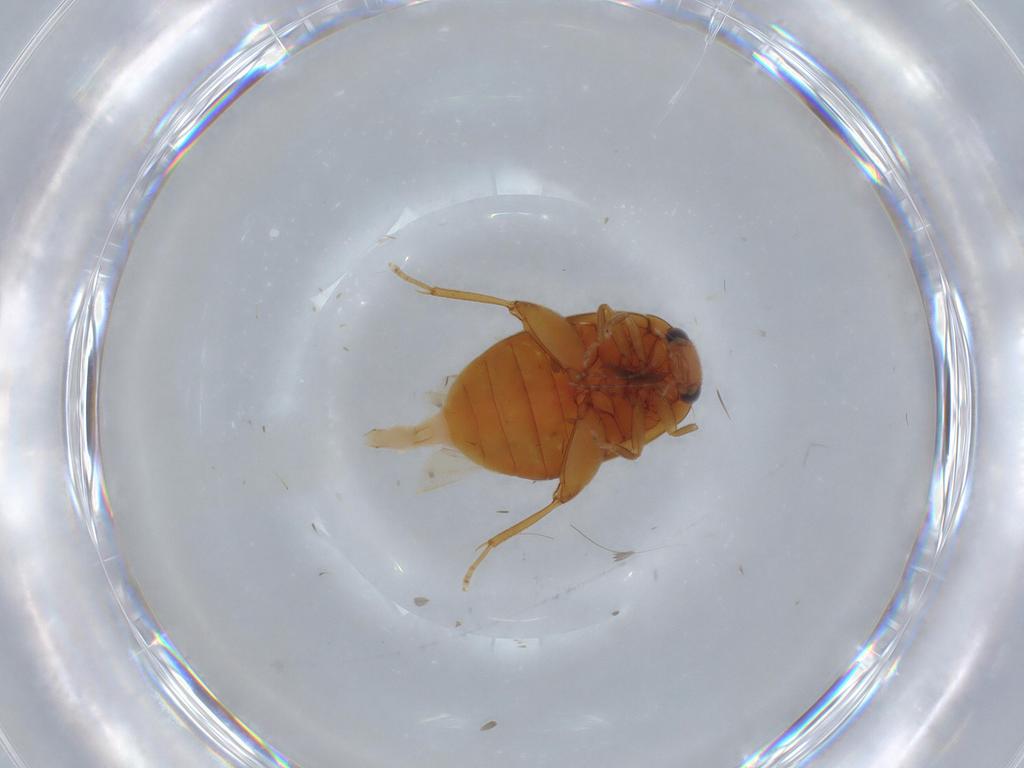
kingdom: Animalia
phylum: Arthropoda
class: Insecta
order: Coleoptera
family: Scirtidae
